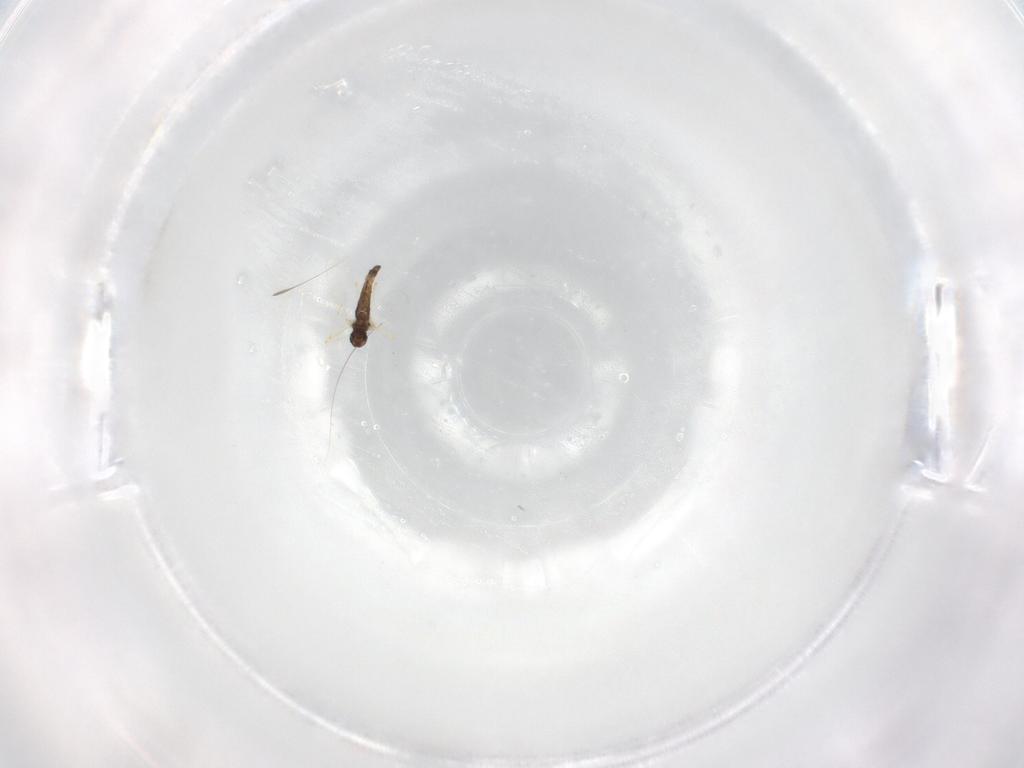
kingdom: Animalia
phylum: Arthropoda
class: Insecta
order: Diptera
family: Chironomidae
